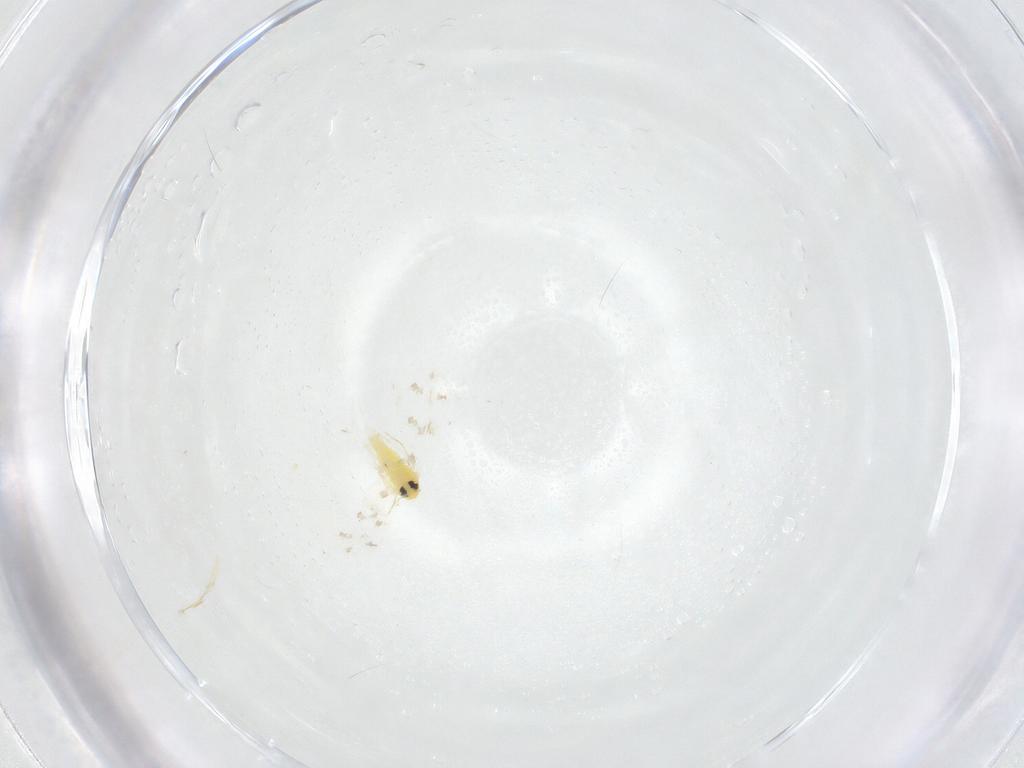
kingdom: Animalia
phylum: Arthropoda
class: Insecta
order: Hemiptera
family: Aleyrodidae
